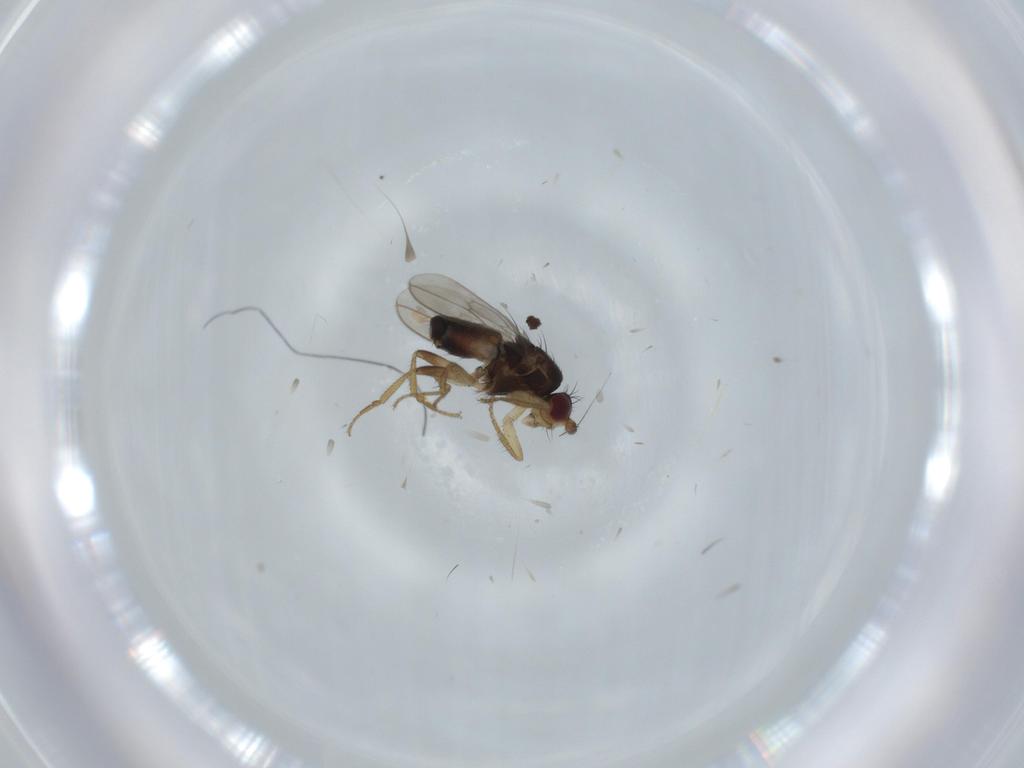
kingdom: Animalia
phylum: Arthropoda
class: Insecta
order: Diptera
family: Sphaeroceridae
